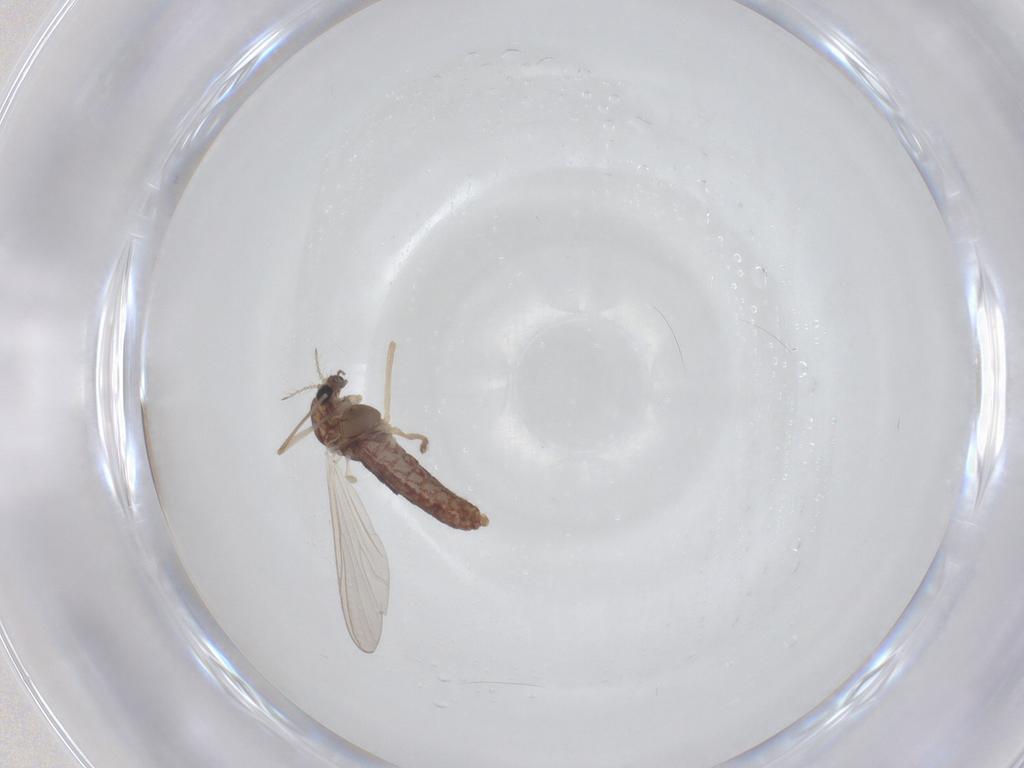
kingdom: Animalia
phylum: Arthropoda
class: Insecta
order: Diptera
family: Chironomidae
